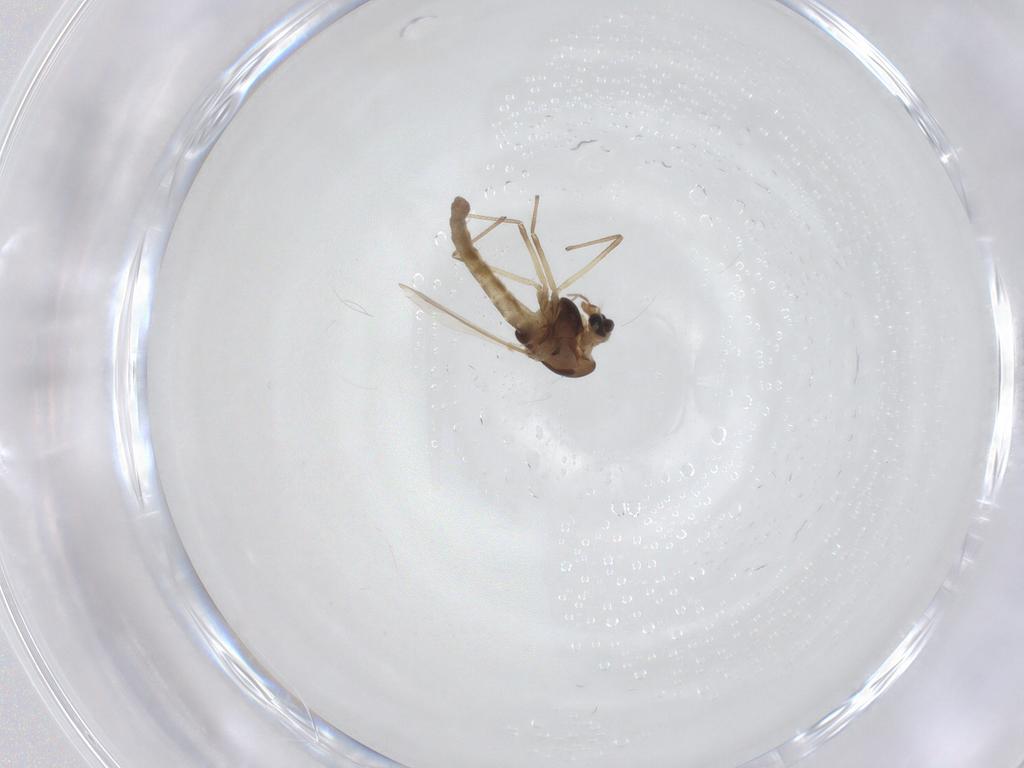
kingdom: Animalia
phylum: Arthropoda
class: Insecta
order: Diptera
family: Chironomidae
